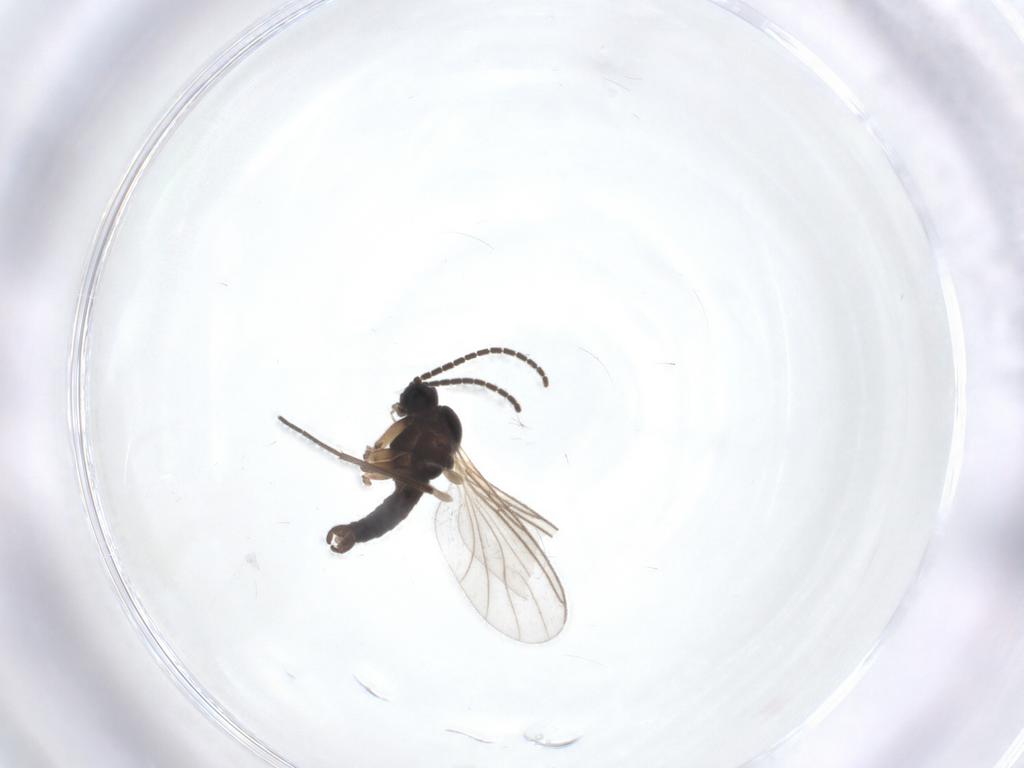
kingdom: Animalia
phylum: Arthropoda
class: Insecta
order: Diptera
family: Sciaridae
